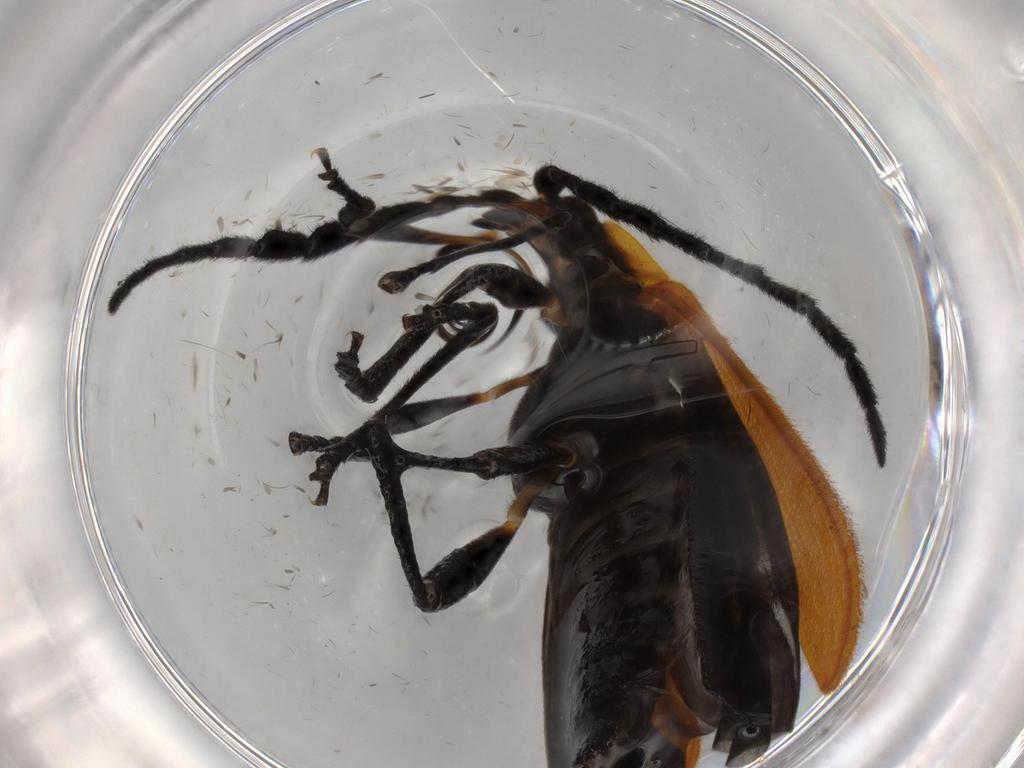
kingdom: Animalia
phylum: Arthropoda
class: Insecta
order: Coleoptera
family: Lycidae
